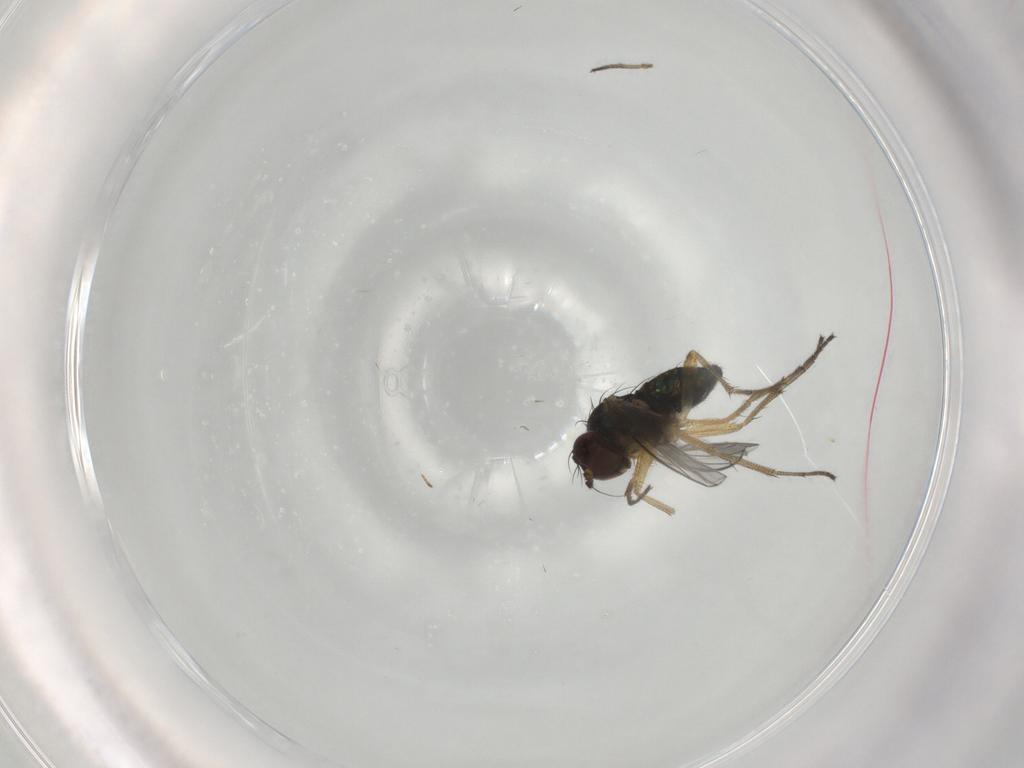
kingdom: Animalia
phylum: Arthropoda
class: Insecta
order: Diptera
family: Dolichopodidae
